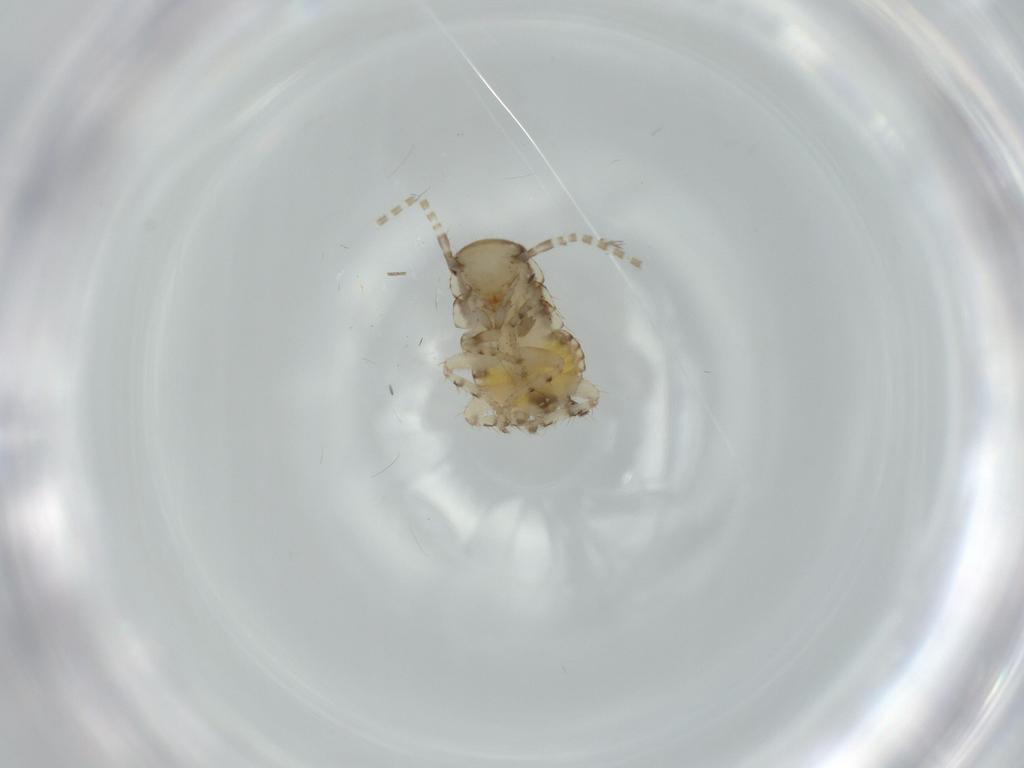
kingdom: Animalia
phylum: Arthropoda
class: Insecta
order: Blattodea
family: Ectobiidae
